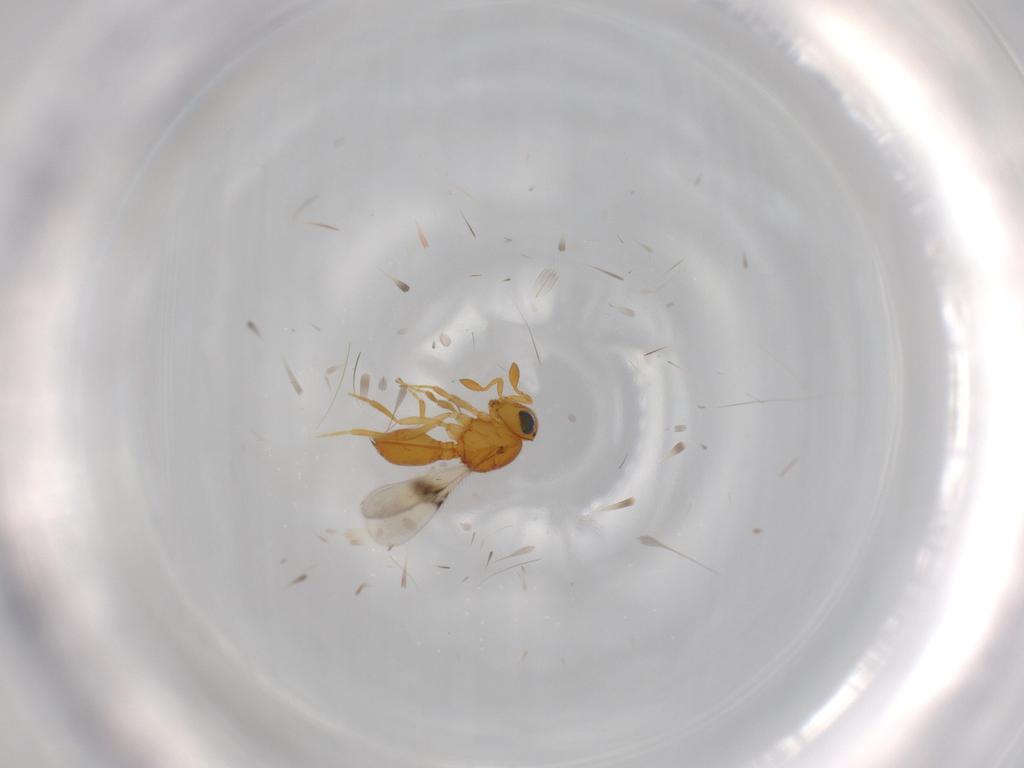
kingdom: Animalia
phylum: Arthropoda
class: Insecta
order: Hymenoptera
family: Scelionidae
